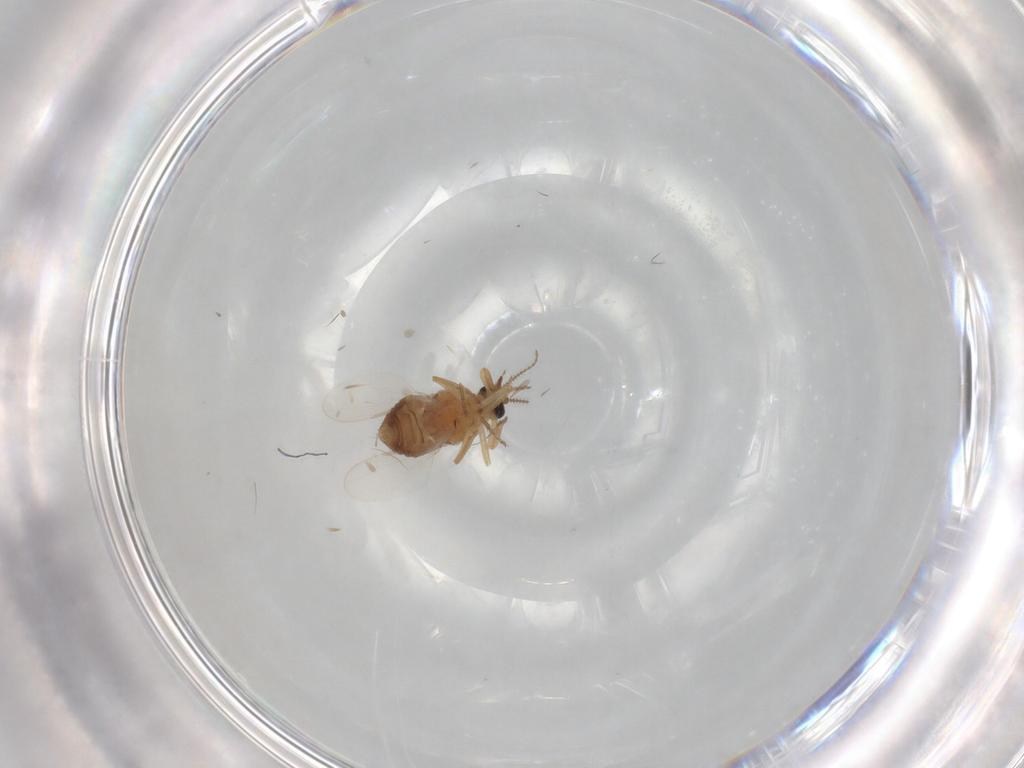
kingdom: Animalia
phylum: Arthropoda
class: Insecta
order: Diptera
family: Ceratopogonidae
